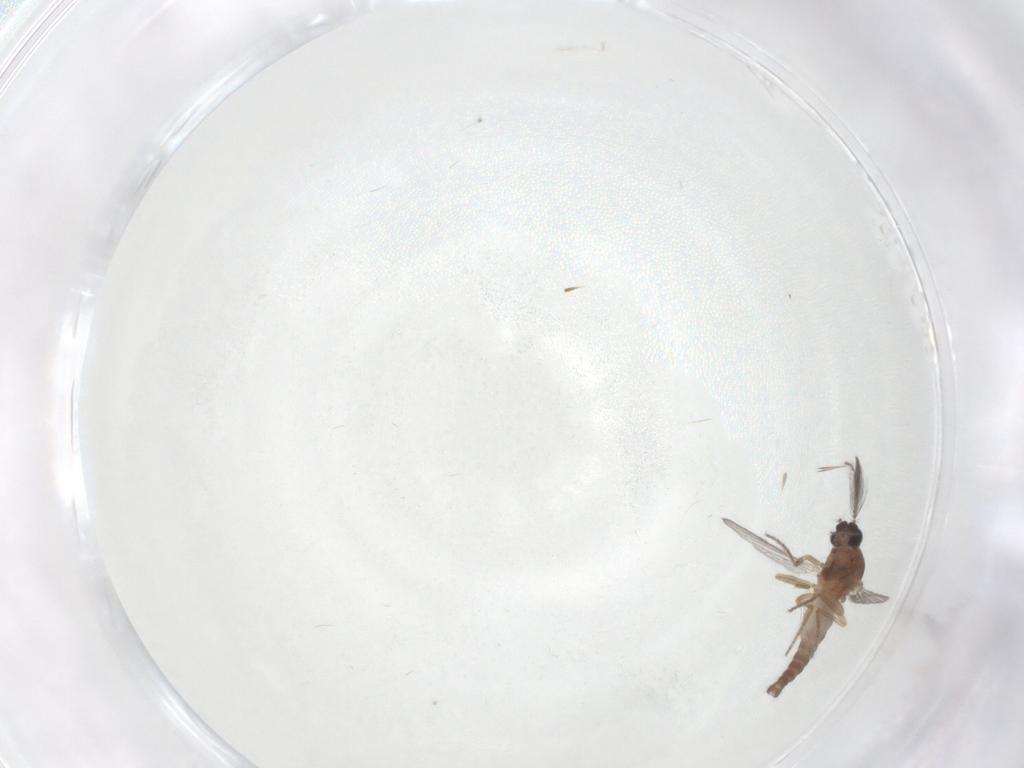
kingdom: Animalia
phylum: Arthropoda
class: Insecta
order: Diptera
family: Ceratopogonidae
